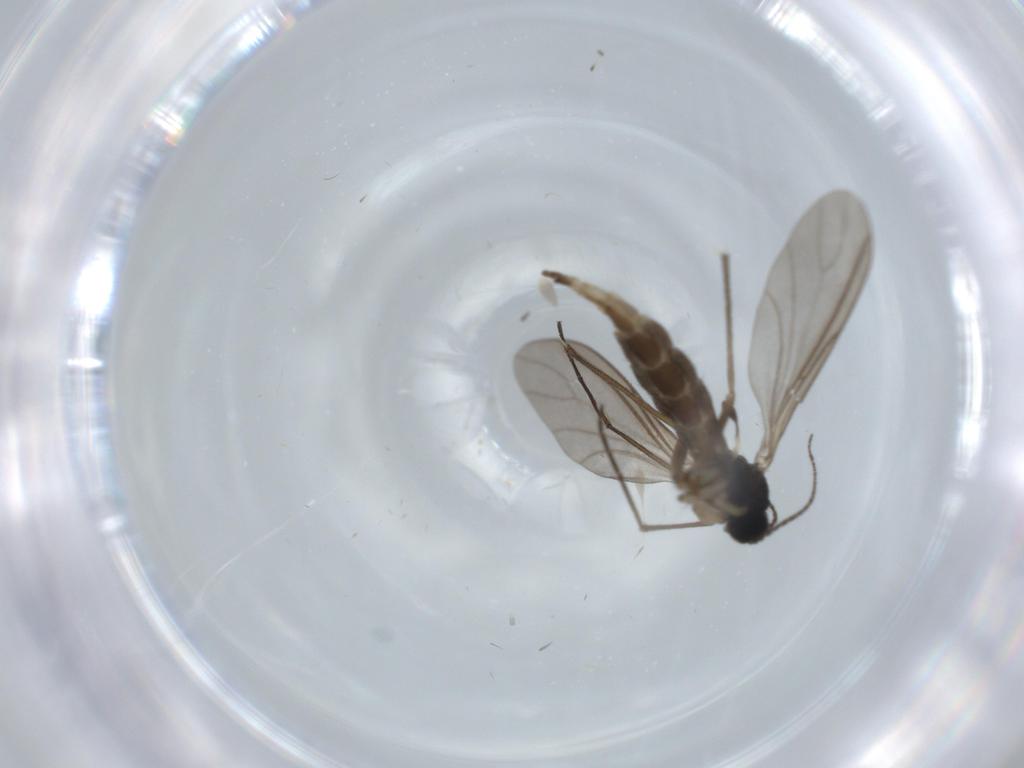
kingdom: Animalia
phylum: Arthropoda
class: Insecta
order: Diptera
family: Sciaridae
